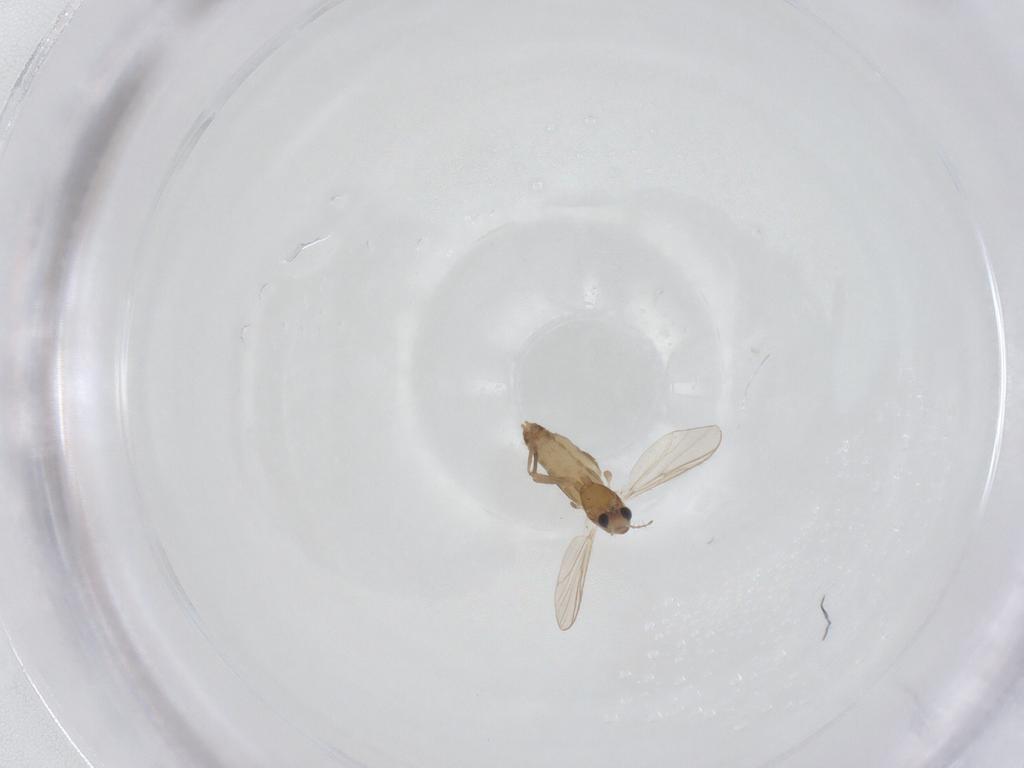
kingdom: Animalia
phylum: Arthropoda
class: Insecta
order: Diptera
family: Chironomidae
